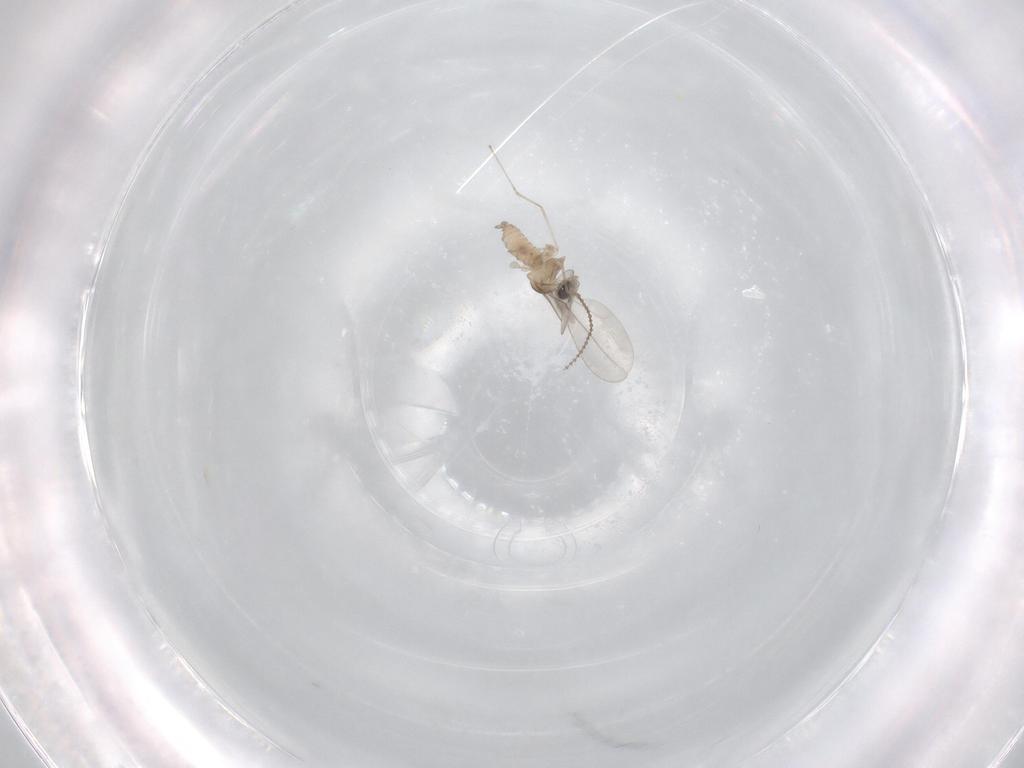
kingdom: Animalia
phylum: Arthropoda
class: Insecta
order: Diptera
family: Cecidomyiidae
